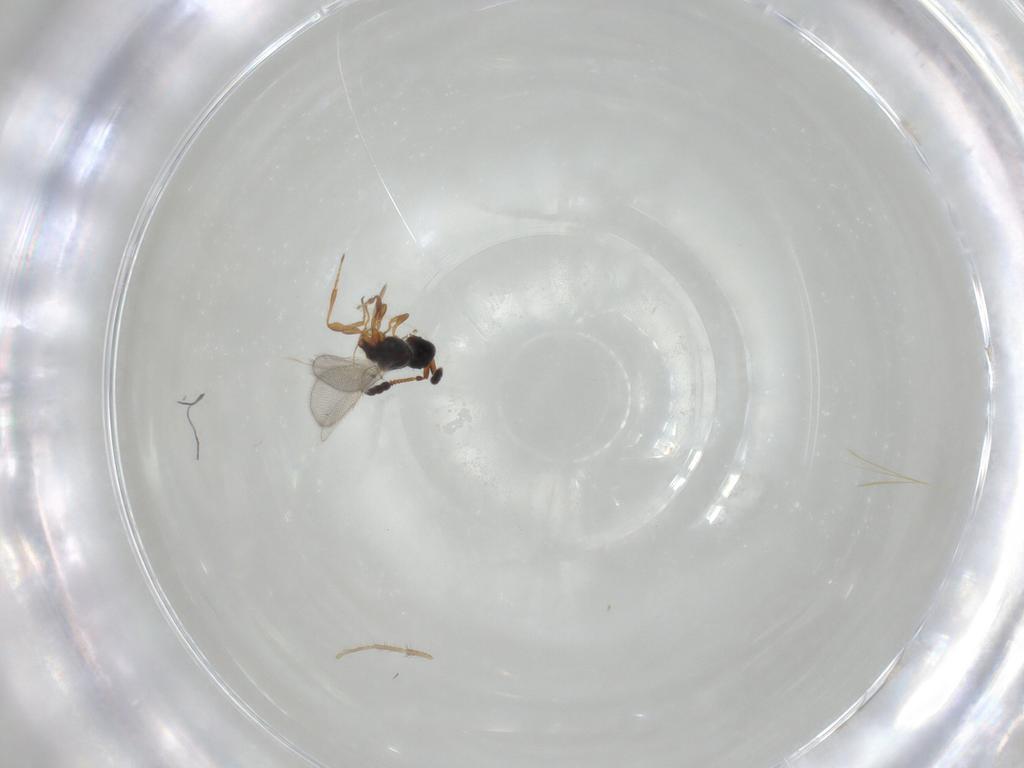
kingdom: Animalia
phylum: Arthropoda
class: Insecta
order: Hymenoptera
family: Diapriidae
